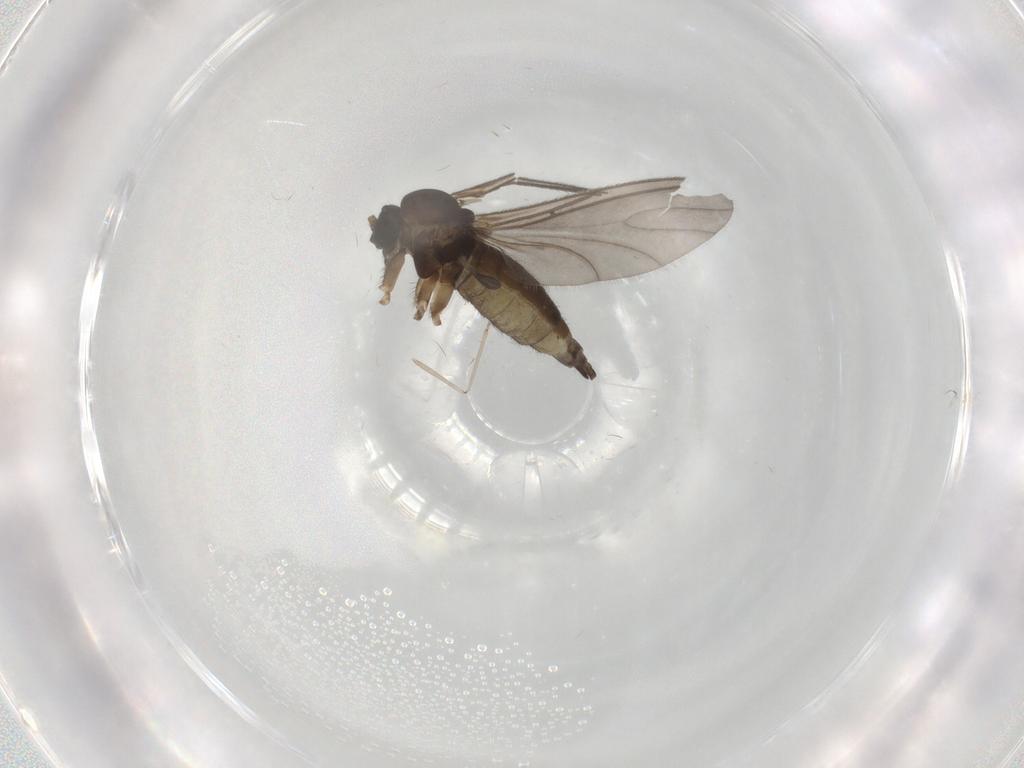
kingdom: Animalia
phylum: Arthropoda
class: Insecta
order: Diptera
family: Sciaridae
